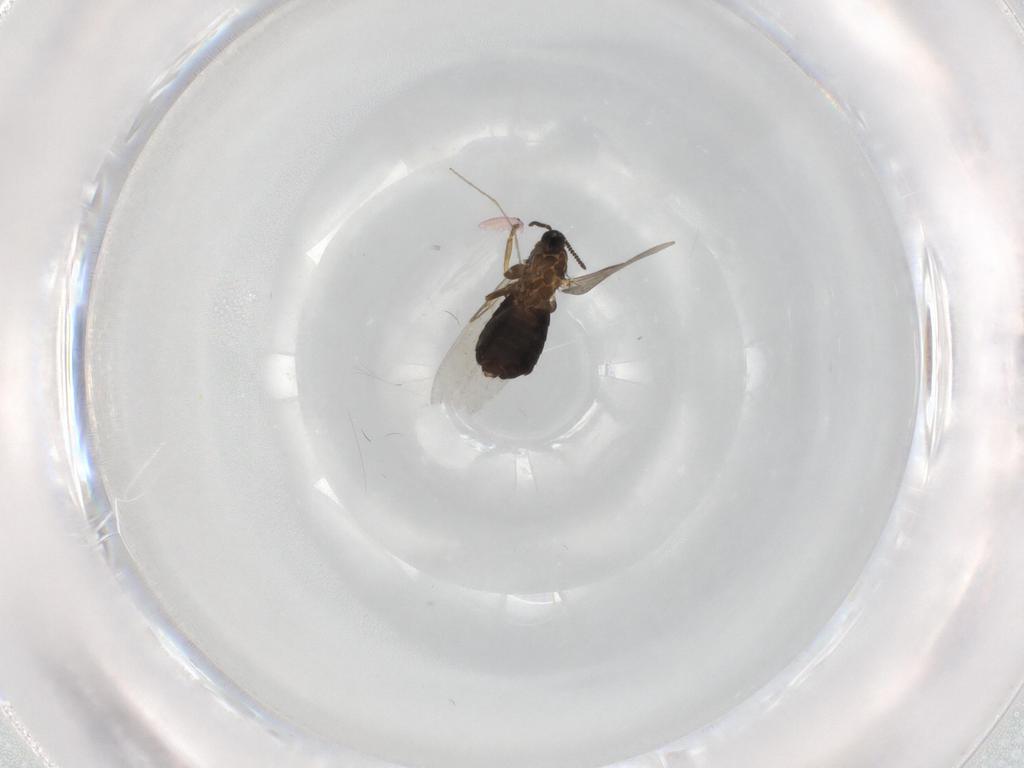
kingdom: Animalia
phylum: Arthropoda
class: Insecta
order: Diptera
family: Scatopsidae
